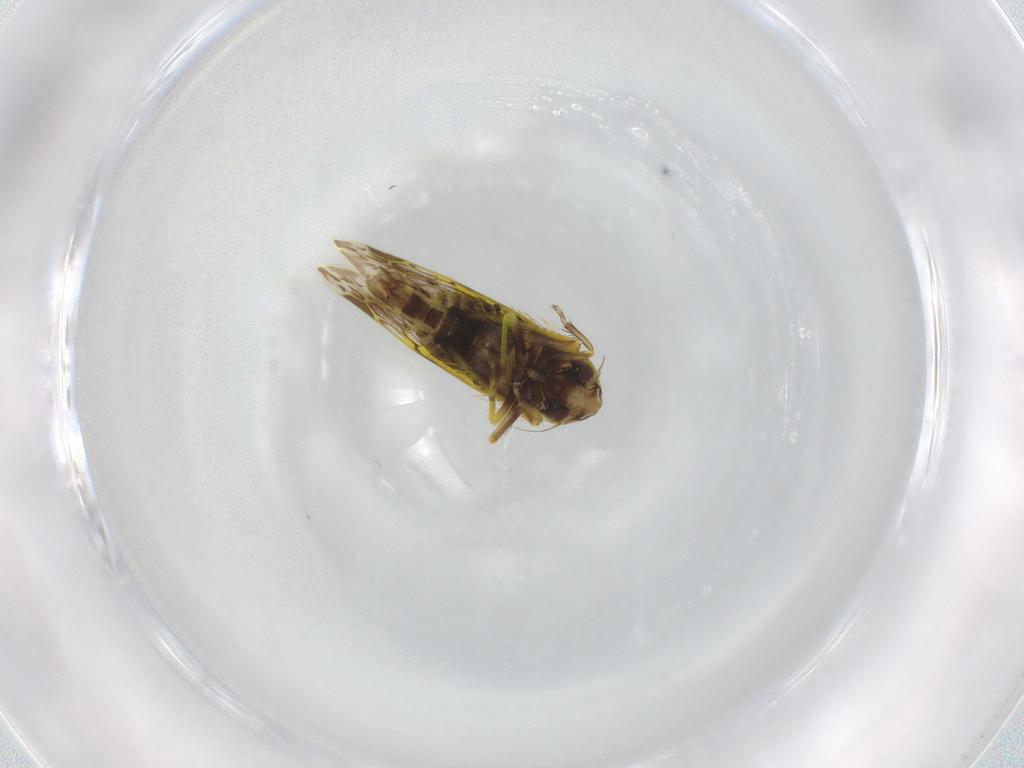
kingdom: Animalia
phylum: Arthropoda
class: Insecta
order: Hemiptera
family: Cicadellidae
